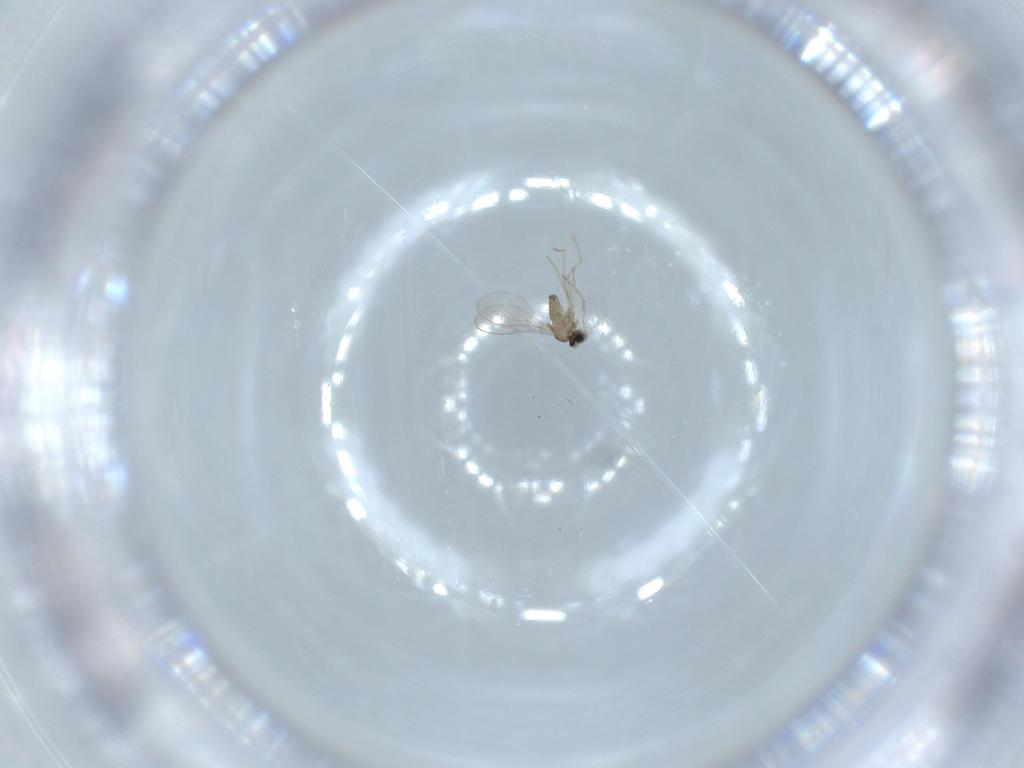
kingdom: Animalia
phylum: Arthropoda
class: Insecta
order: Diptera
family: Cecidomyiidae
